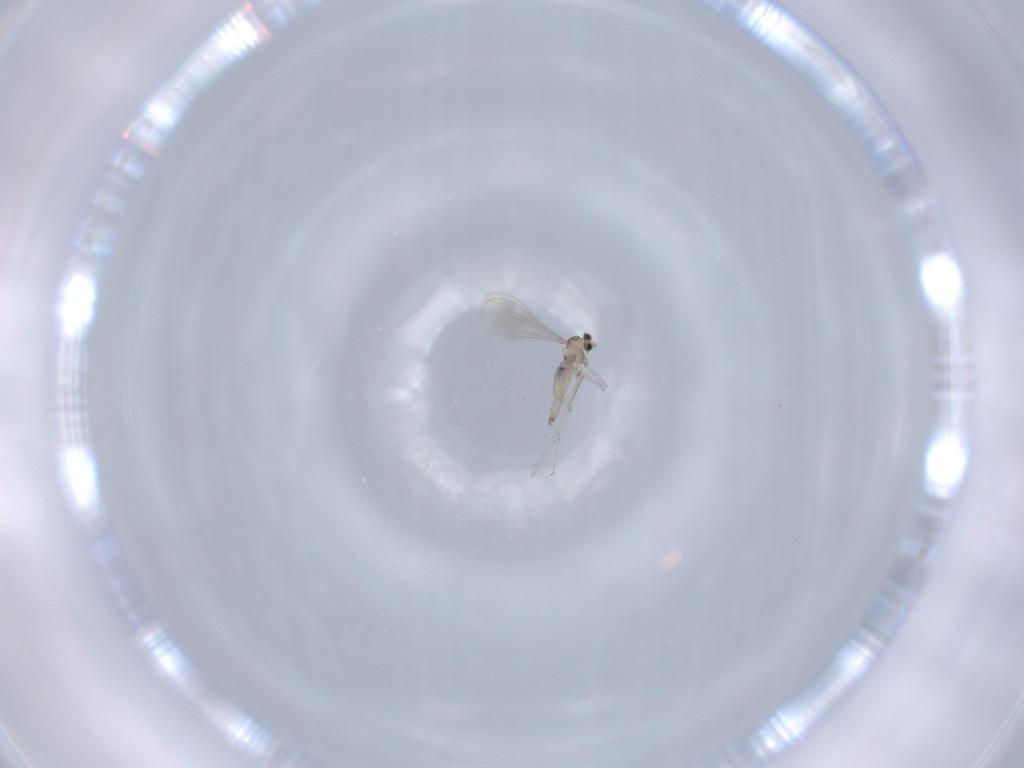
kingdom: Animalia
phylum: Arthropoda
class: Insecta
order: Diptera
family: Cecidomyiidae
